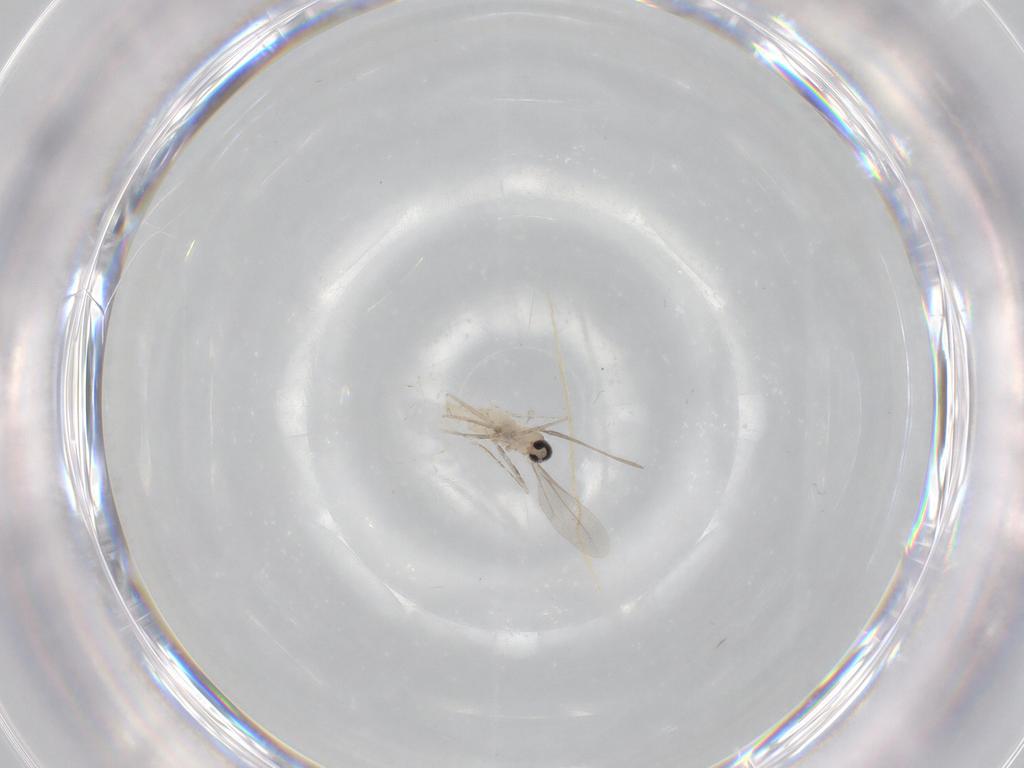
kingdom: Animalia
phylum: Arthropoda
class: Insecta
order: Diptera
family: Cecidomyiidae
